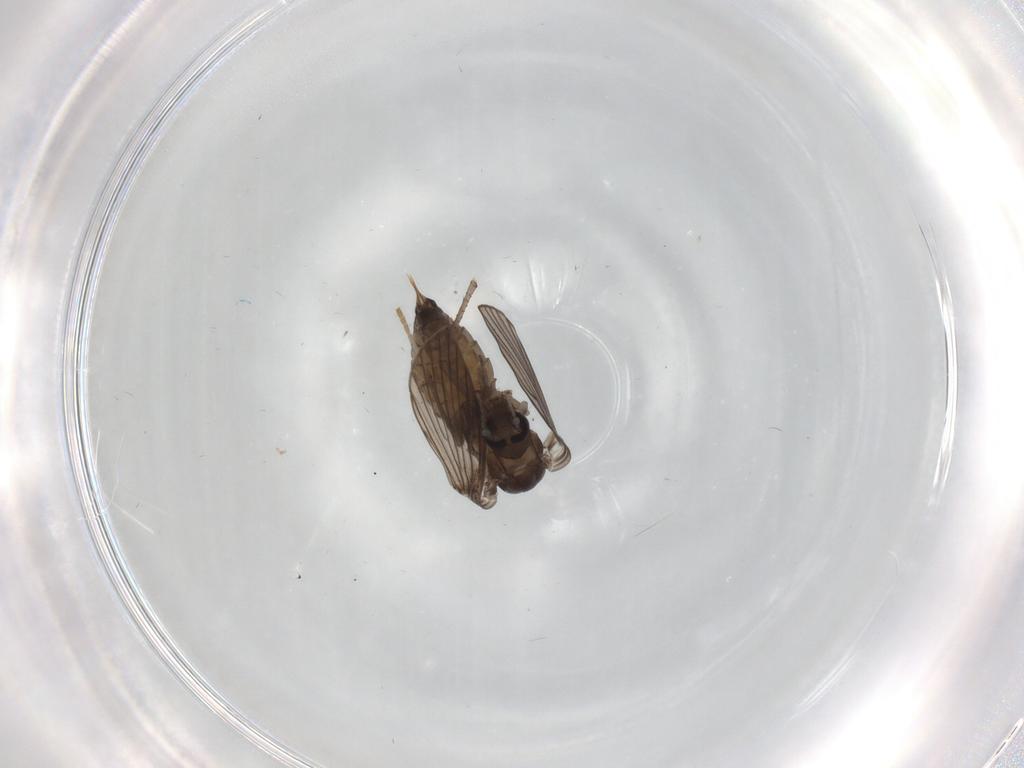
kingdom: Animalia
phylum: Arthropoda
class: Insecta
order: Diptera
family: Psychodidae
